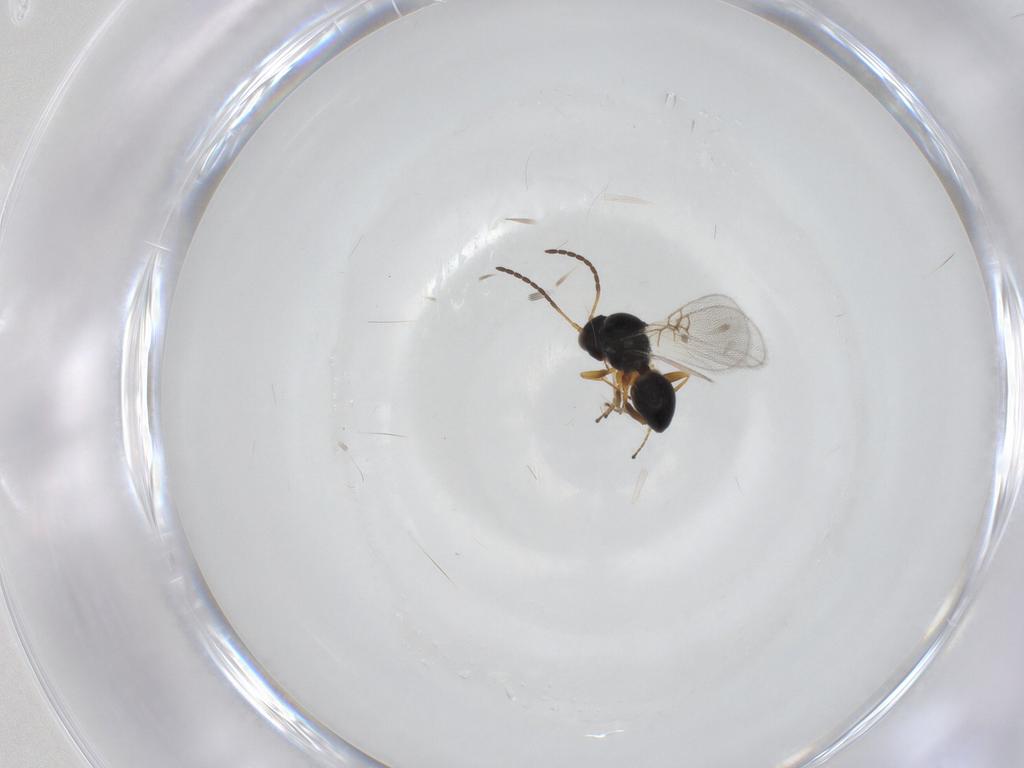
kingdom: Animalia
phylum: Arthropoda
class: Insecta
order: Hymenoptera
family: Figitidae
